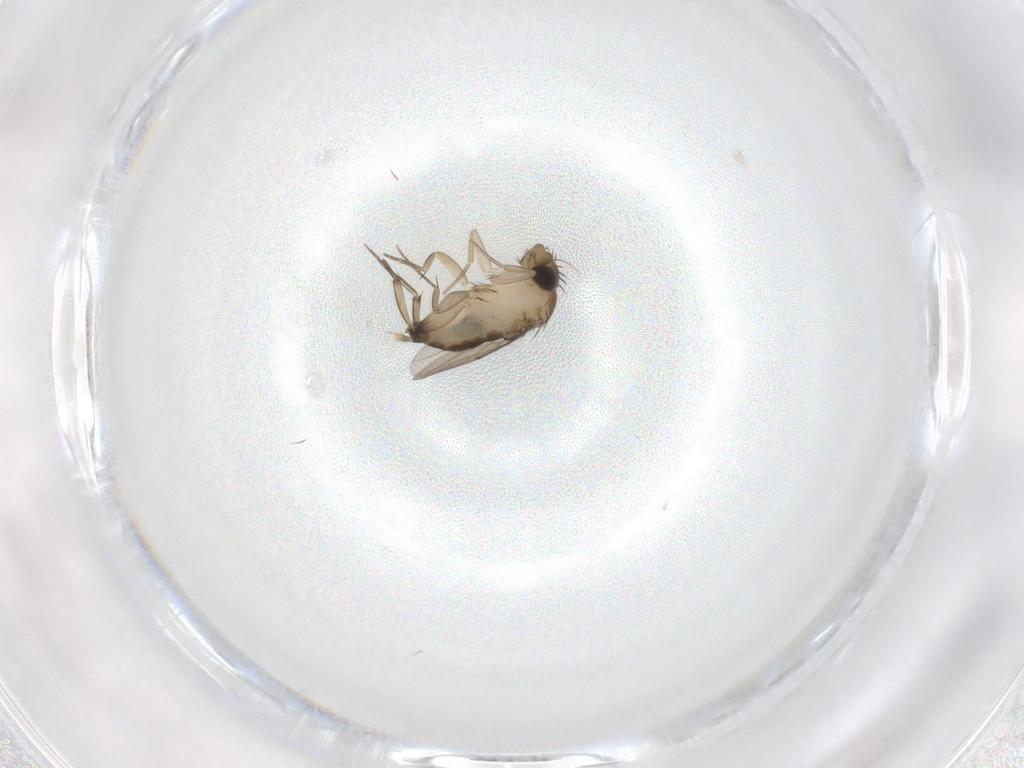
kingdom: Animalia
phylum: Arthropoda
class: Insecta
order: Diptera
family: Phoridae
